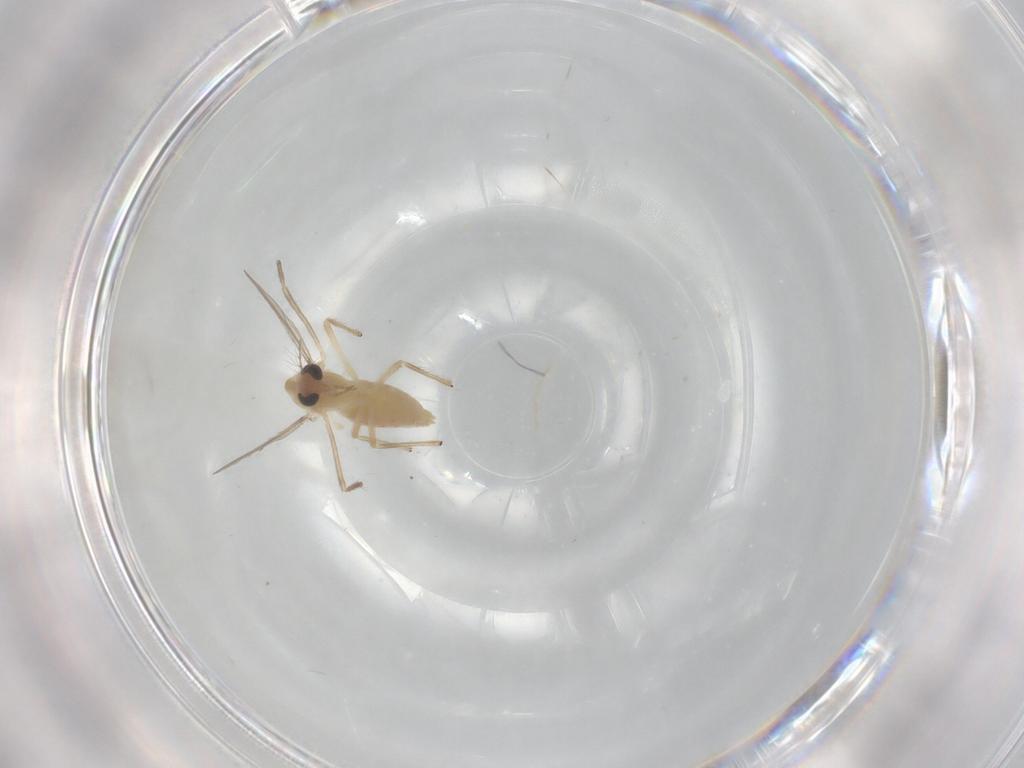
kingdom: Animalia
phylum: Arthropoda
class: Insecta
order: Diptera
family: Chironomidae
